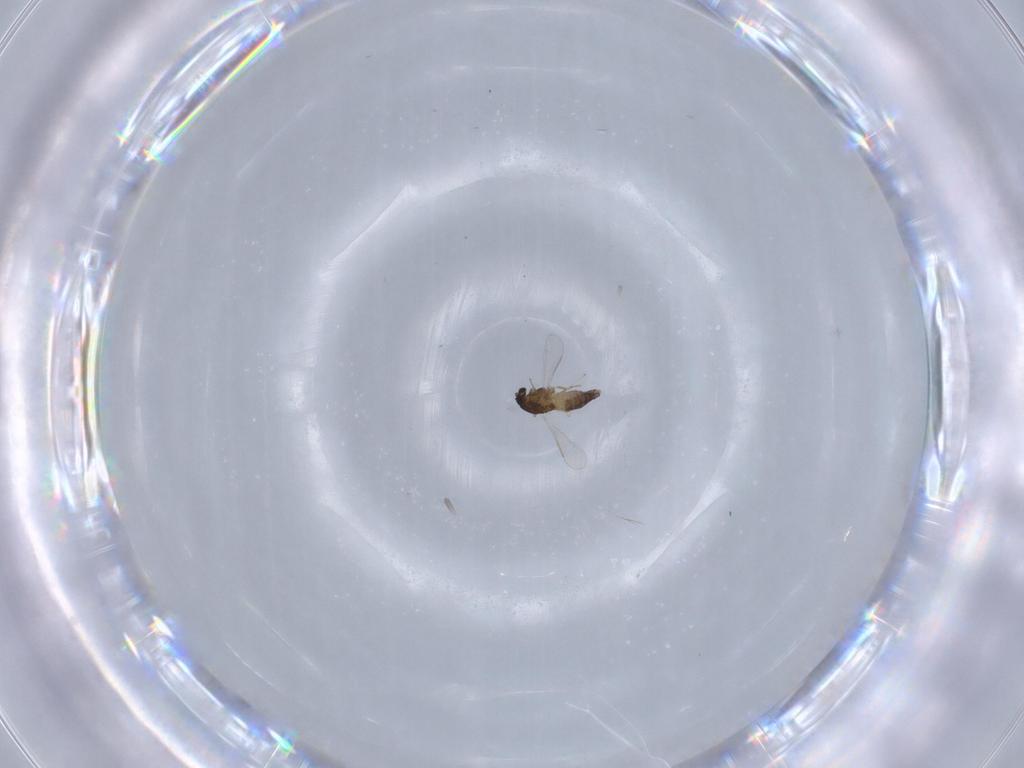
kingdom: Animalia
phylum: Arthropoda
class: Insecta
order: Diptera
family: Chironomidae
